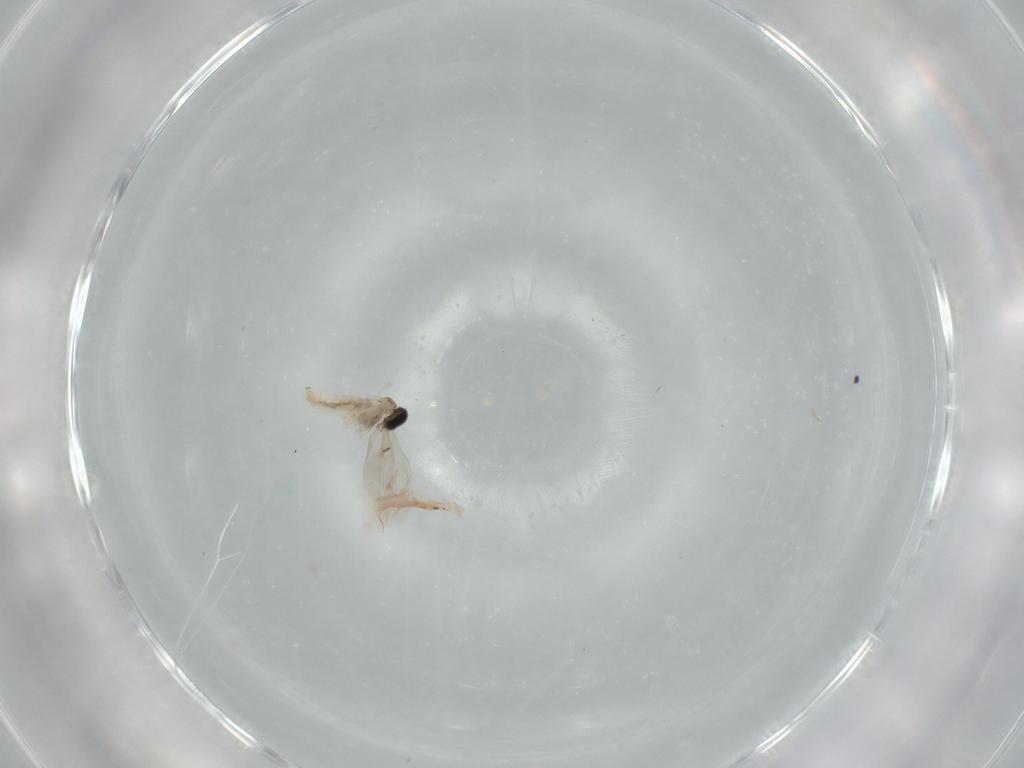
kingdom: Animalia
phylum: Arthropoda
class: Insecta
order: Diptera
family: Cecidomyiidae
